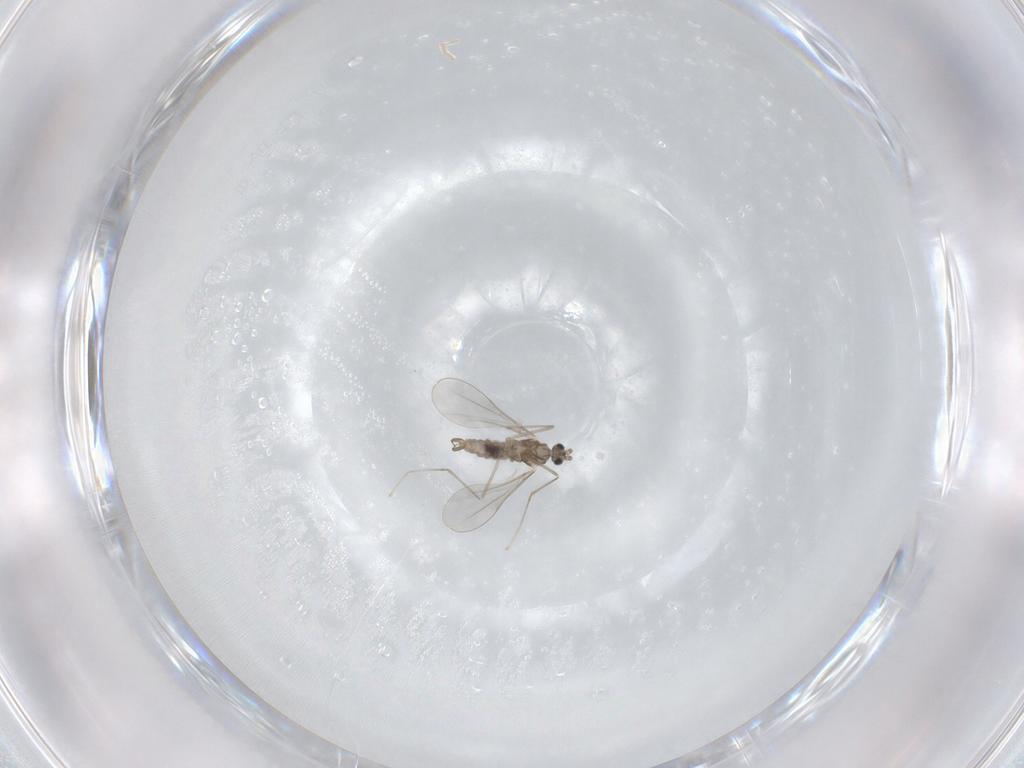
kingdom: Animalia
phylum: Arthropoda
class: Insecta
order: Diptera
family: Cecidomyiidae
